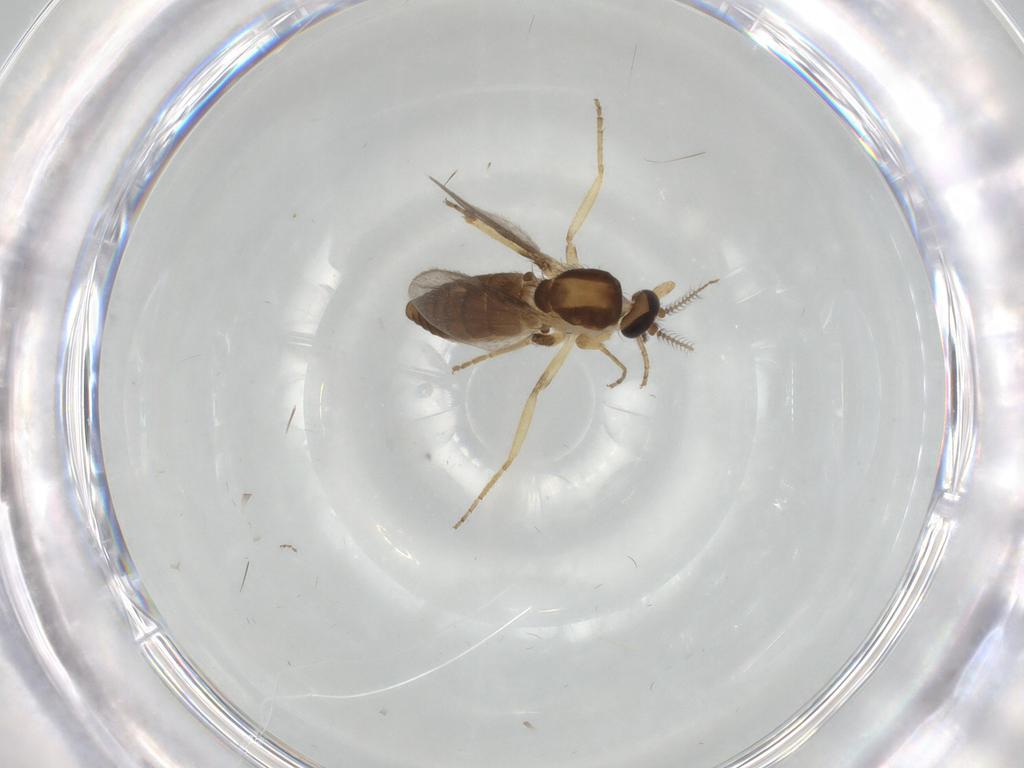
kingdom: Animalia
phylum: Arthropoda
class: Insecta
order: Diptera
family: Ceratopogonidae
